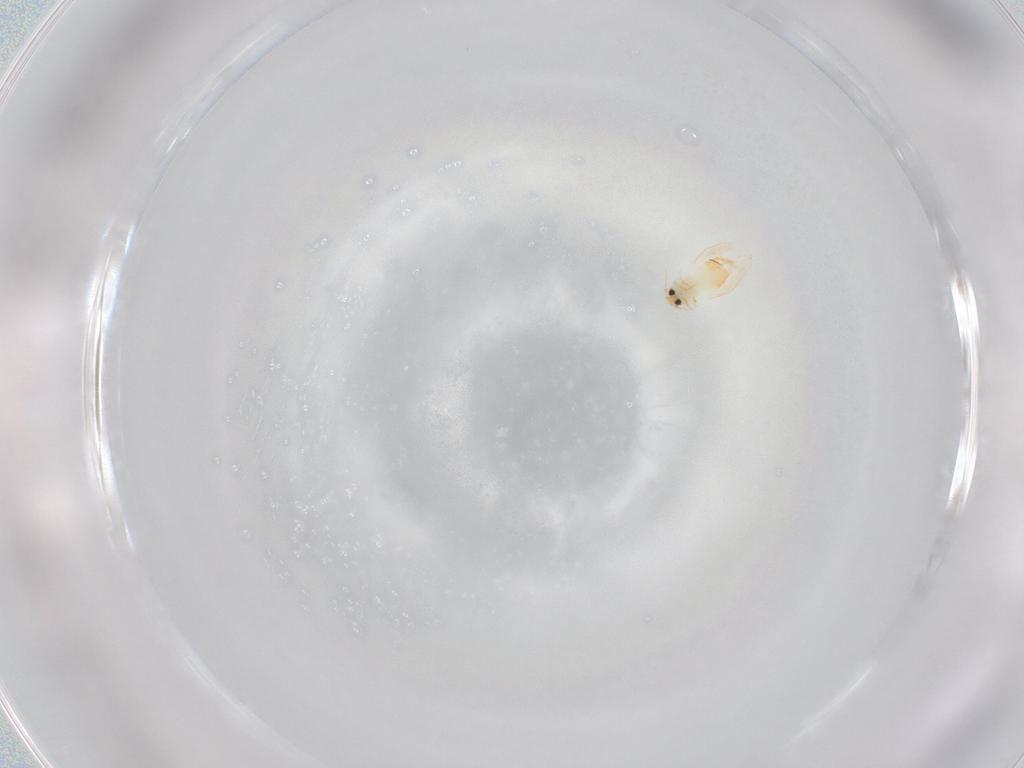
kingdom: Animalia
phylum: Arthropoda
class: Insecta
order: Hemiptera
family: Aleyrodidae
